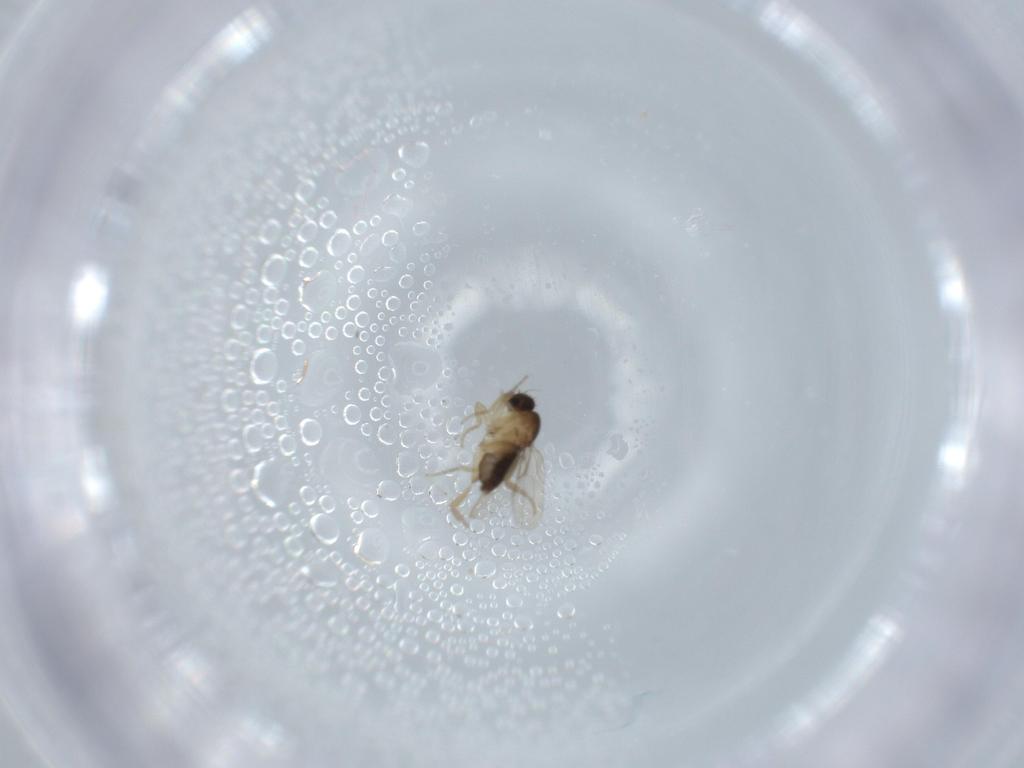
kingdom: Animalia
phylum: Arthropoda
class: Insecta
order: Diptera
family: Phoridae
